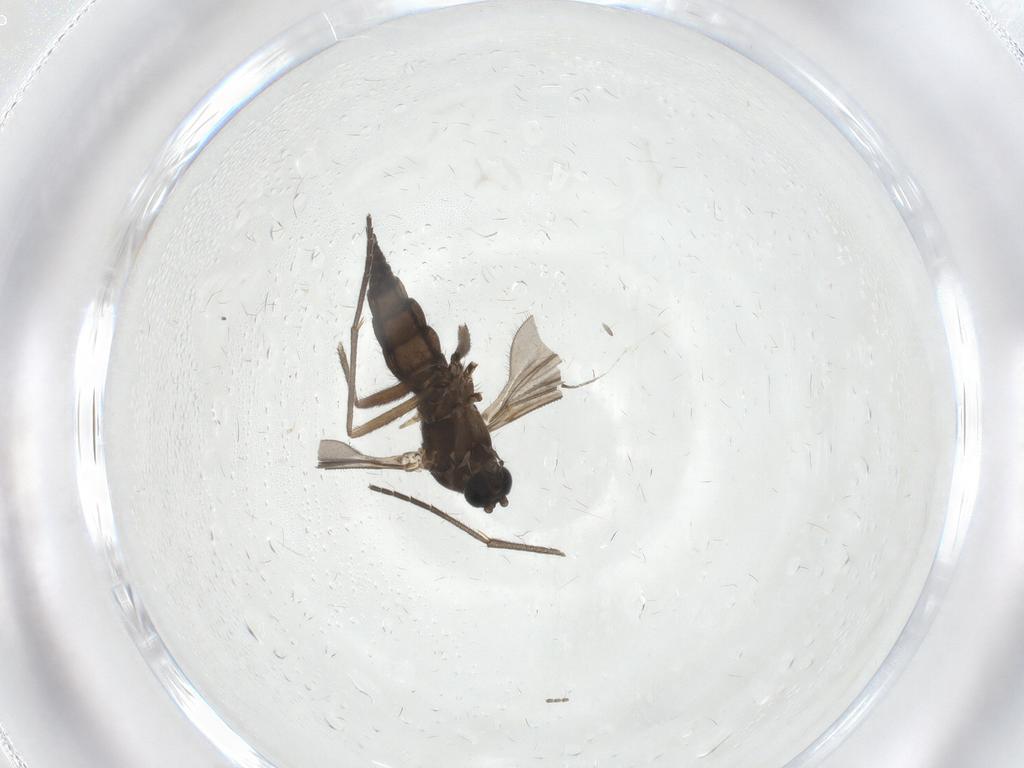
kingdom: Animalia
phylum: Arthropoda
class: Insecta
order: Diptera
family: Sciaridae
